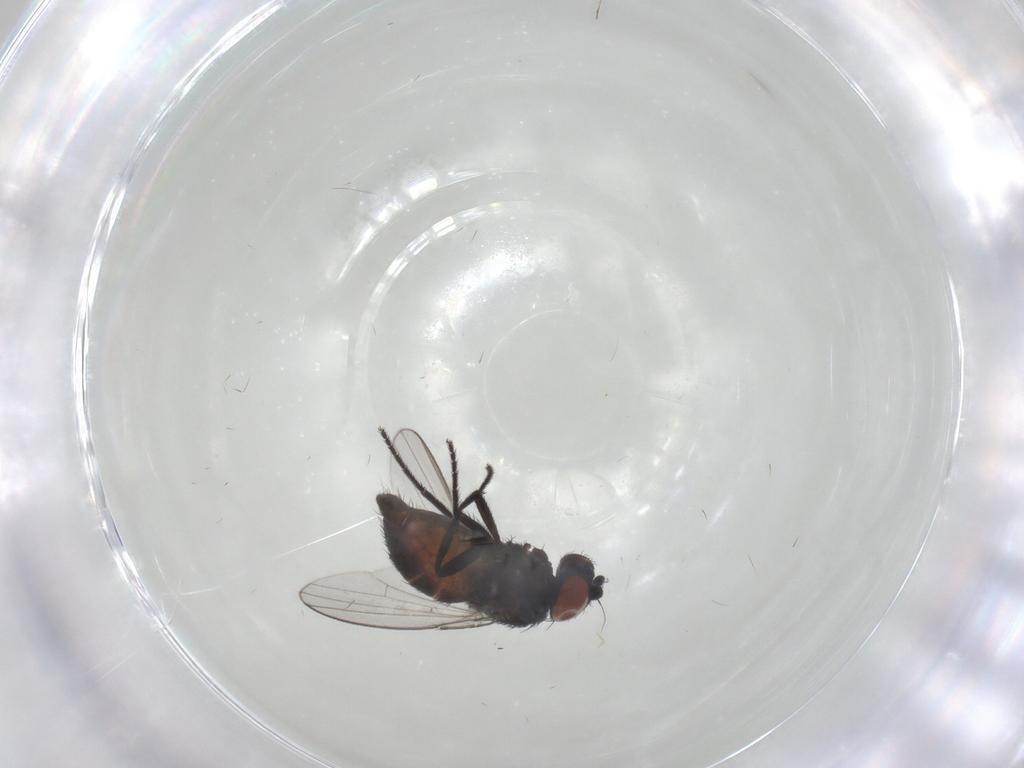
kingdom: Animalia
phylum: Arthropoda
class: Insecta
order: Diptera
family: Milichiidae
